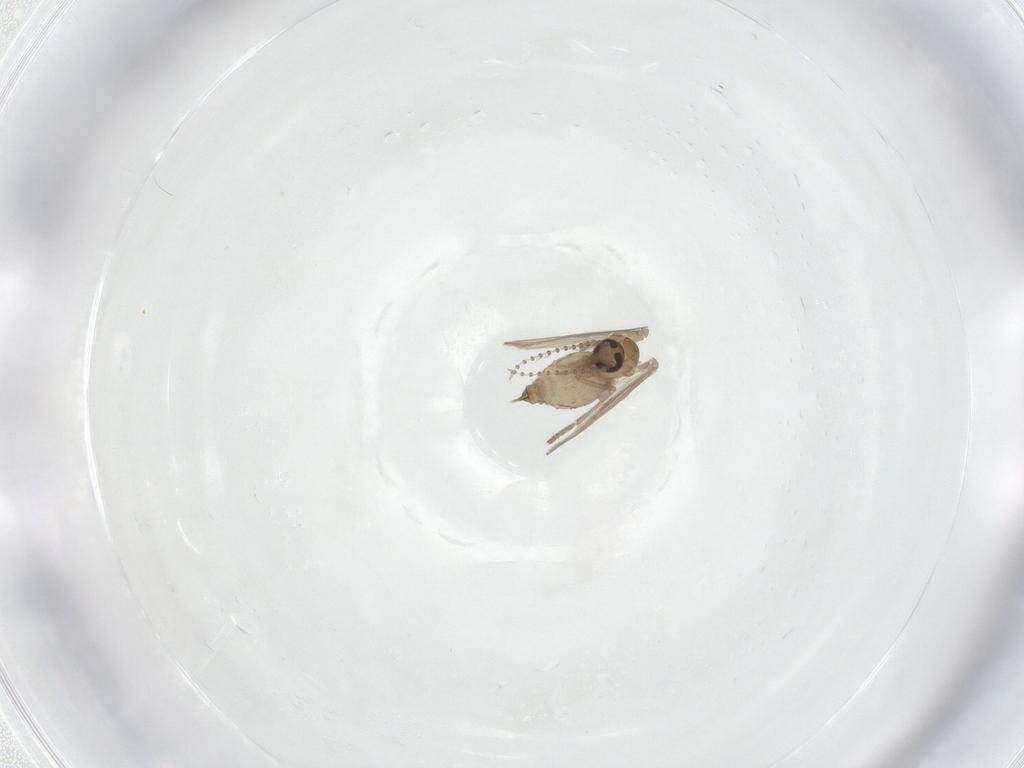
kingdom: Animalia
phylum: Arthropoda
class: Insecta
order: Diptera
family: Psychodidae
